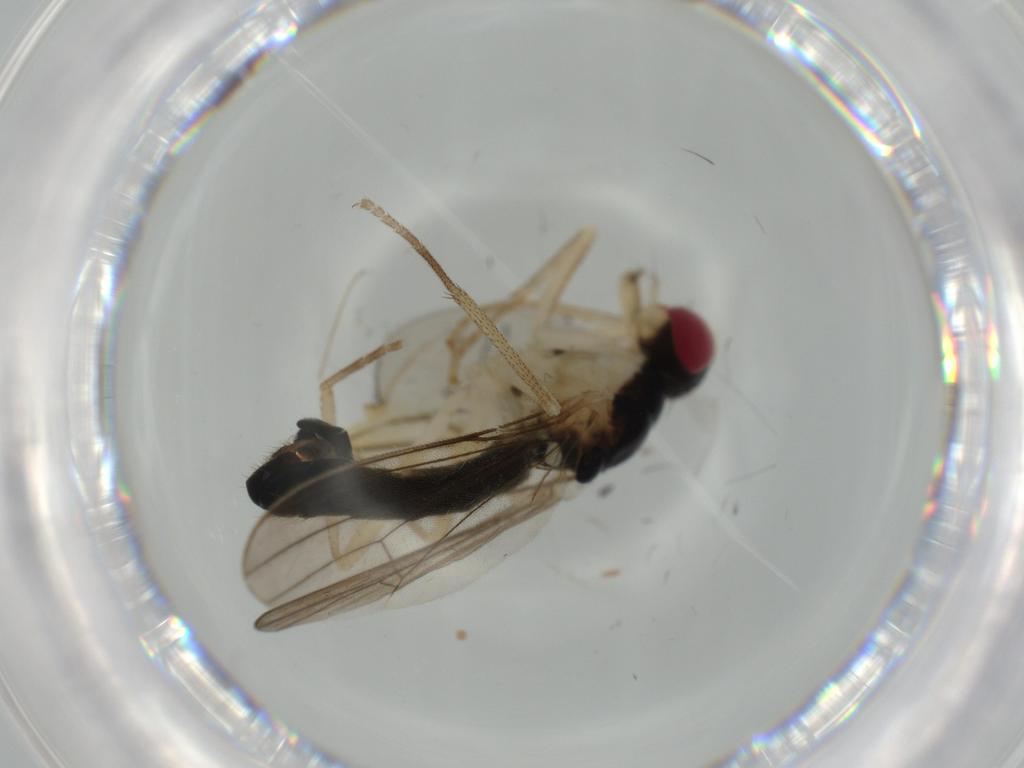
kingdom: Animalia
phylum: Arthropoda
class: Insecta
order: Diptera
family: Scathophagidae
